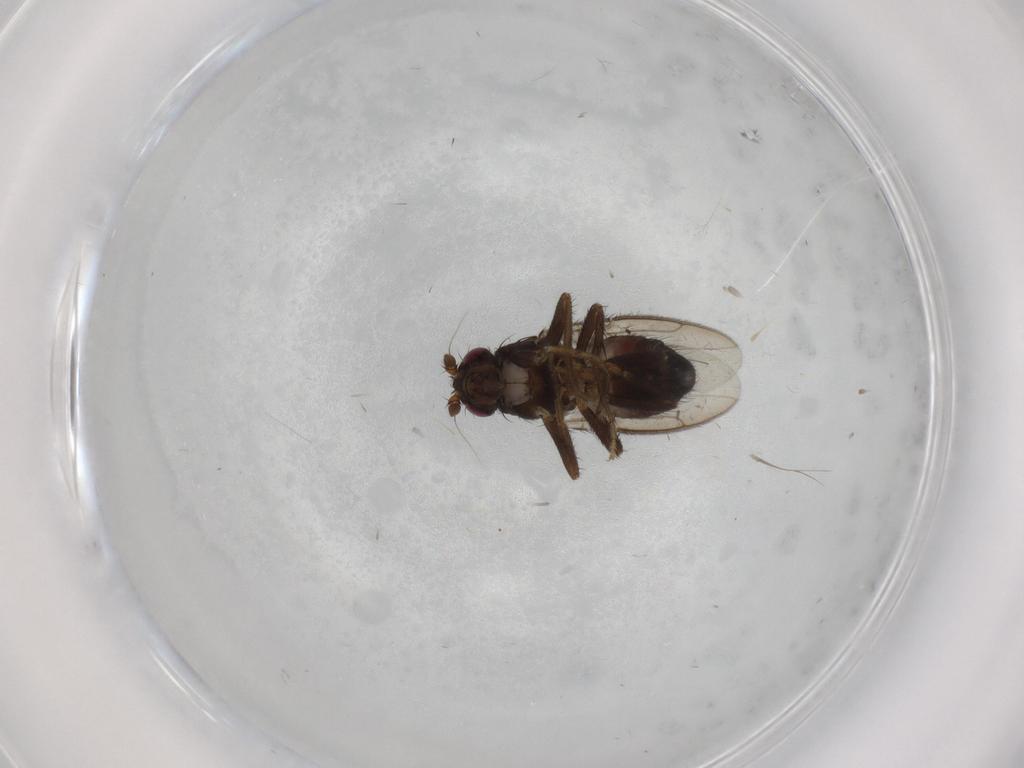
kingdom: Animalia
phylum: Arthropoda
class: Insecta
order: Diptera
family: Sphaeroceridae
